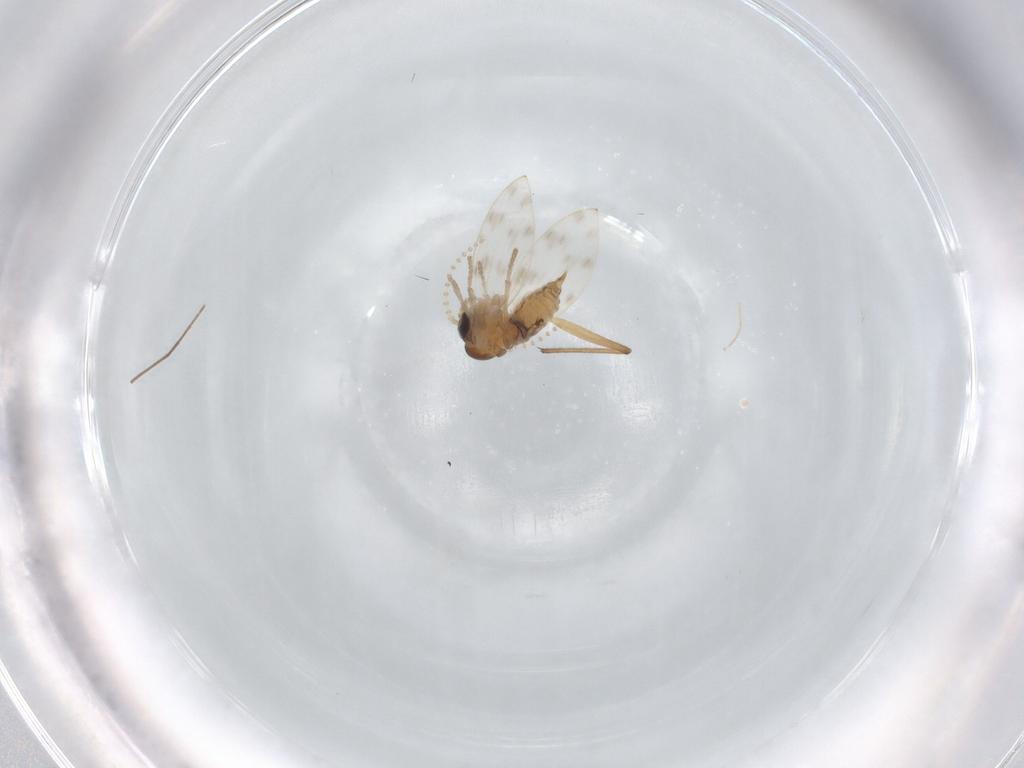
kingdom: Animalia
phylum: Arthropoda
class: Insecta
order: Diptera
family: Chironomidae
